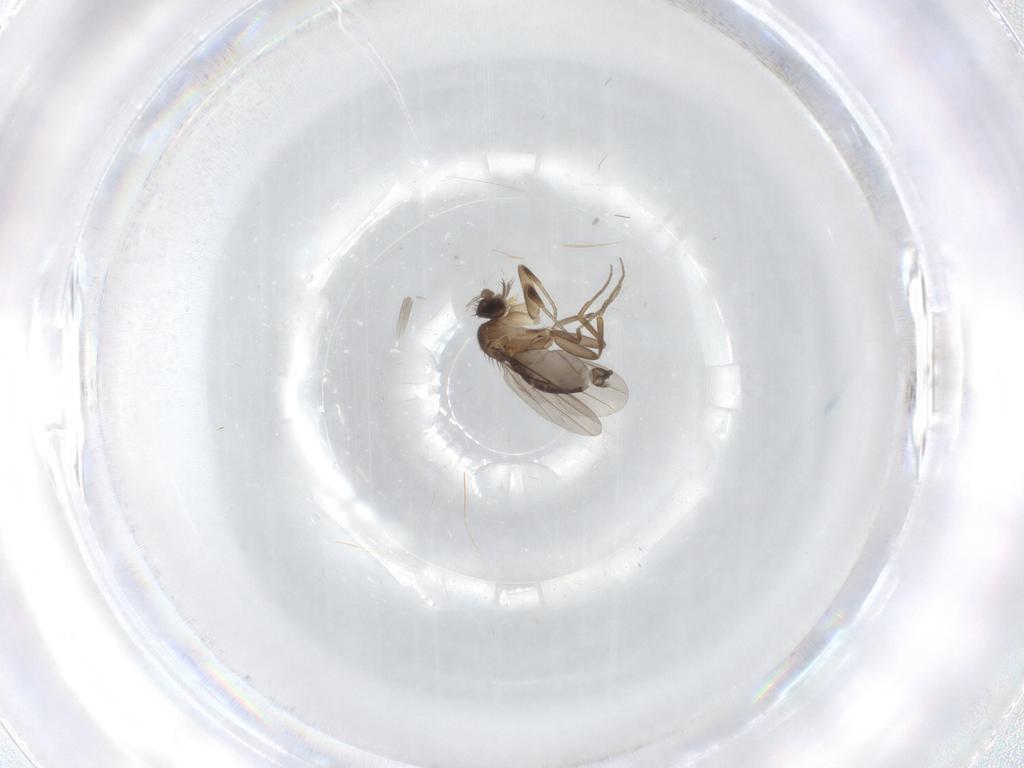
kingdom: Animalia
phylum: Arthropoda
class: Insecta
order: Diptera
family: Phoridae
